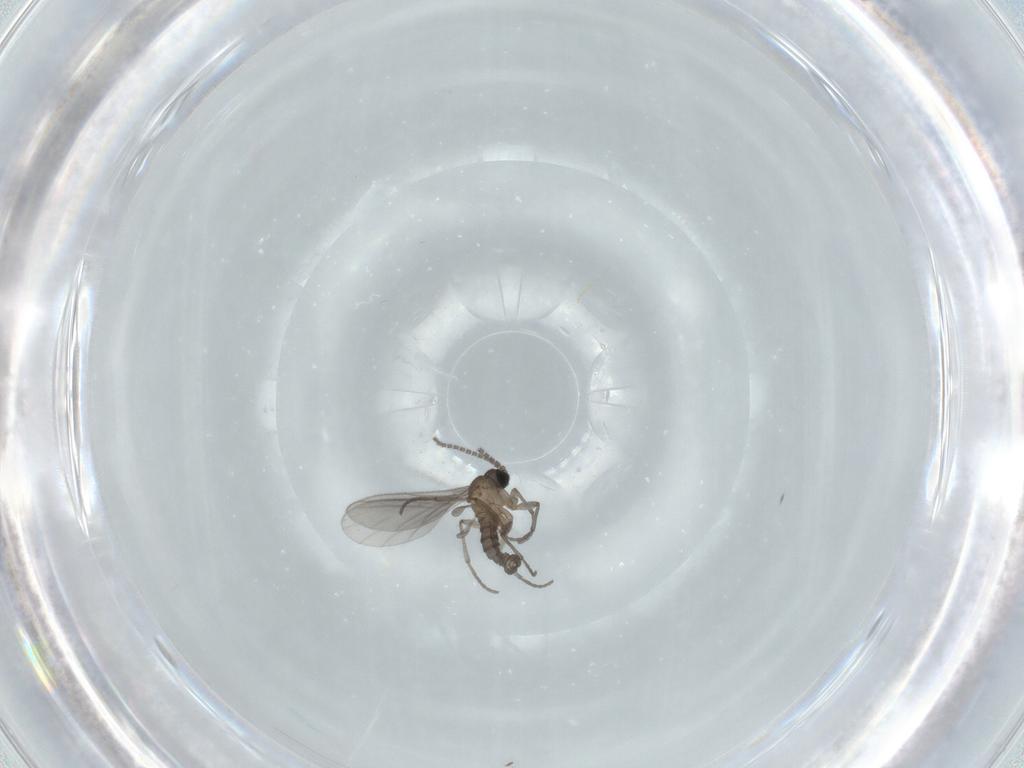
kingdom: Animalia
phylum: Arthropoda
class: Insecta
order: Diptera
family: Sciaridae
